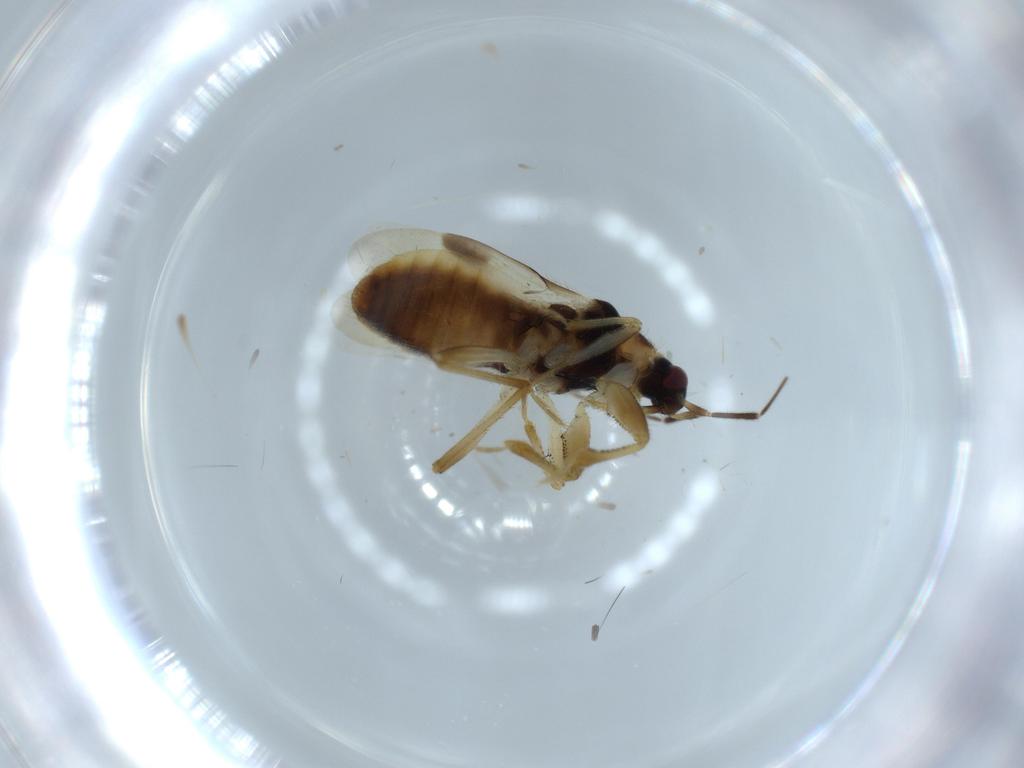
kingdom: Animalia
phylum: Arthropoda
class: Insecta
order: Hemiptera
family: Nabidae
